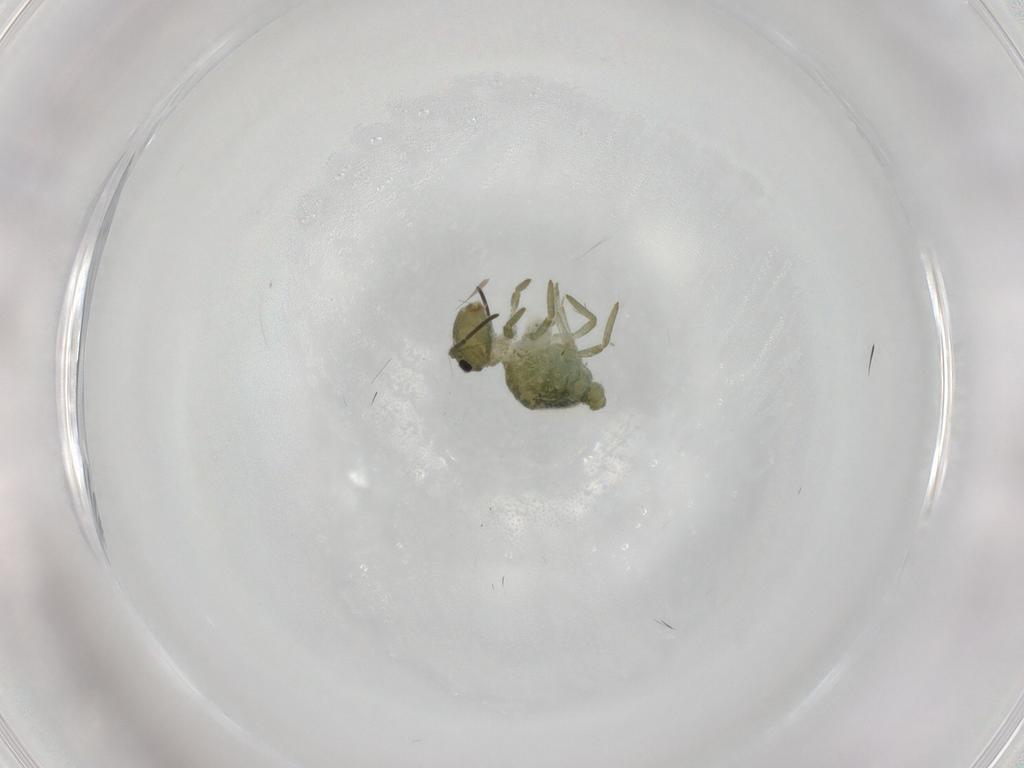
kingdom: Animalia
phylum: Arthropoda
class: Collembola
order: Symphypleona
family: Sminthuridae
